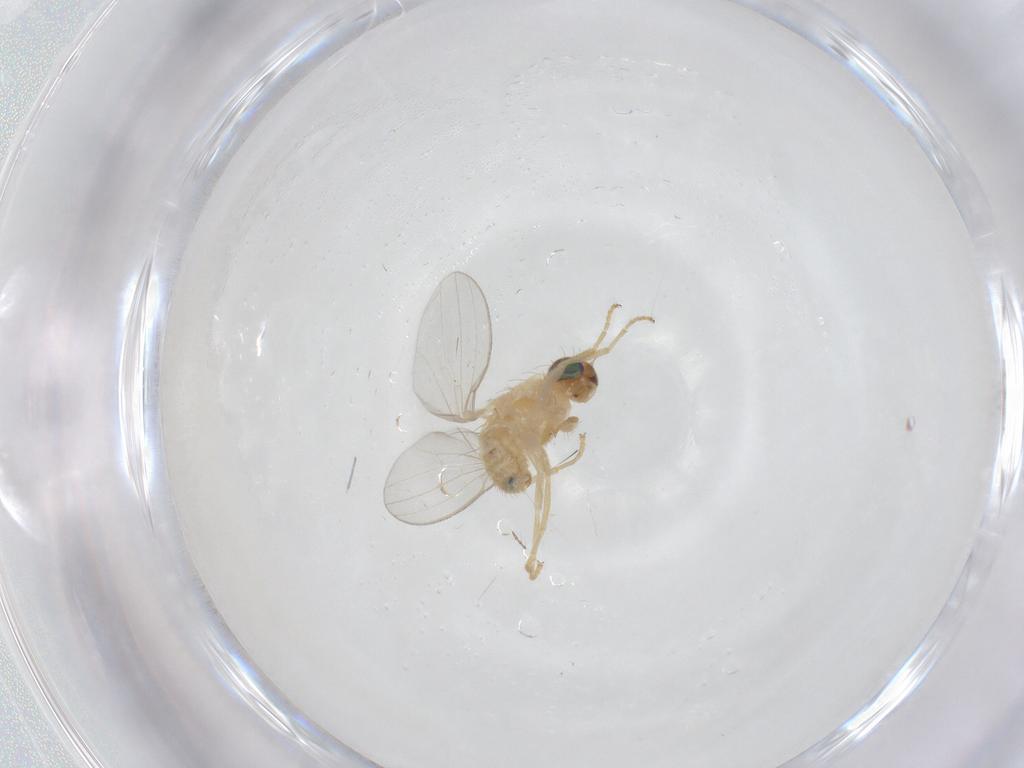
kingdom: Animalia
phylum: Arthropoda
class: Insecta
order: Diptera
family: Chyromyidae
